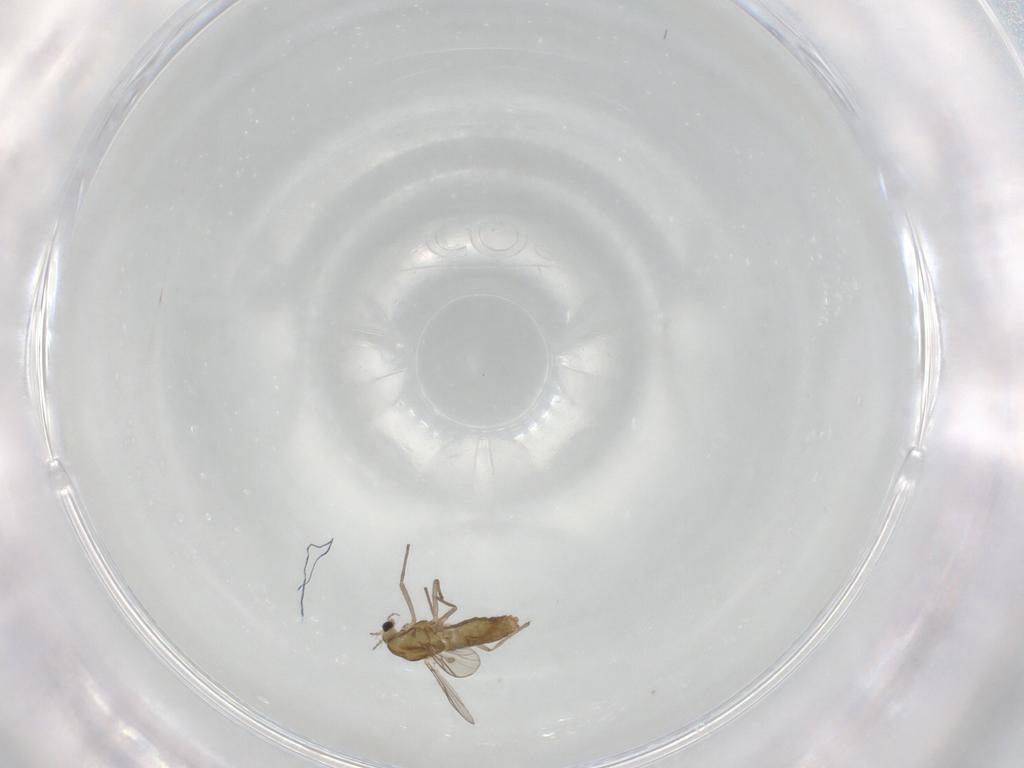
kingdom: Animalia
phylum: Arthropoda
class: Insecta
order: Diptera
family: Chironomidae
